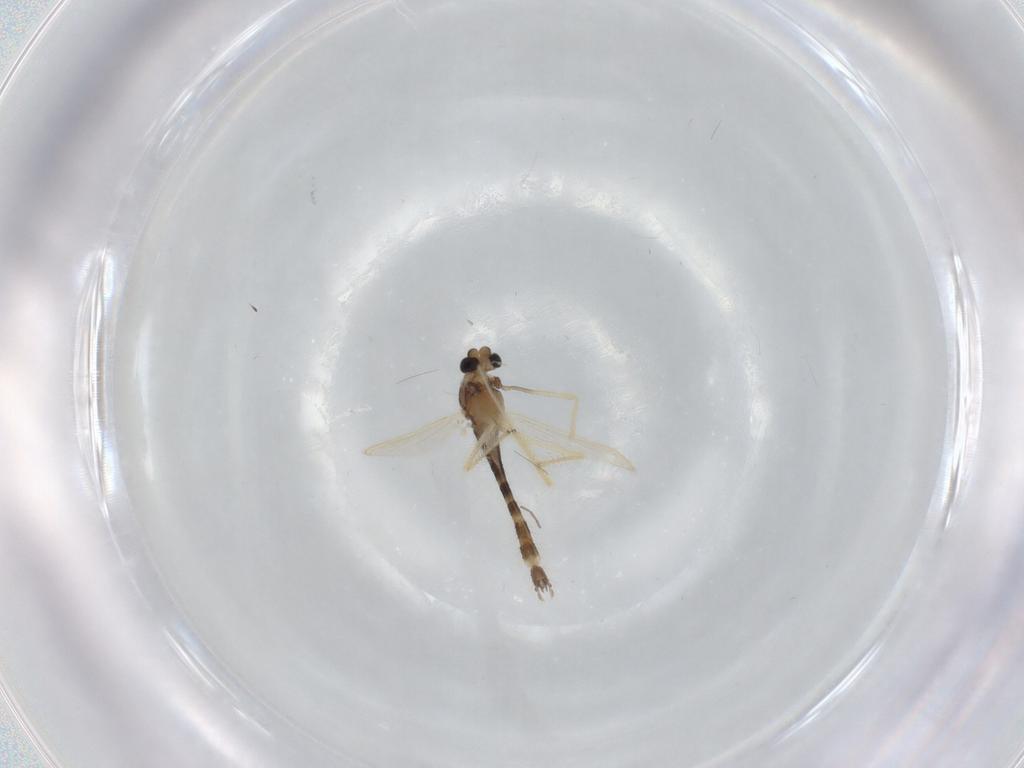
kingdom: Animalia
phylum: Arthropoda
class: Insecta
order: Diptera
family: Chironomidae
